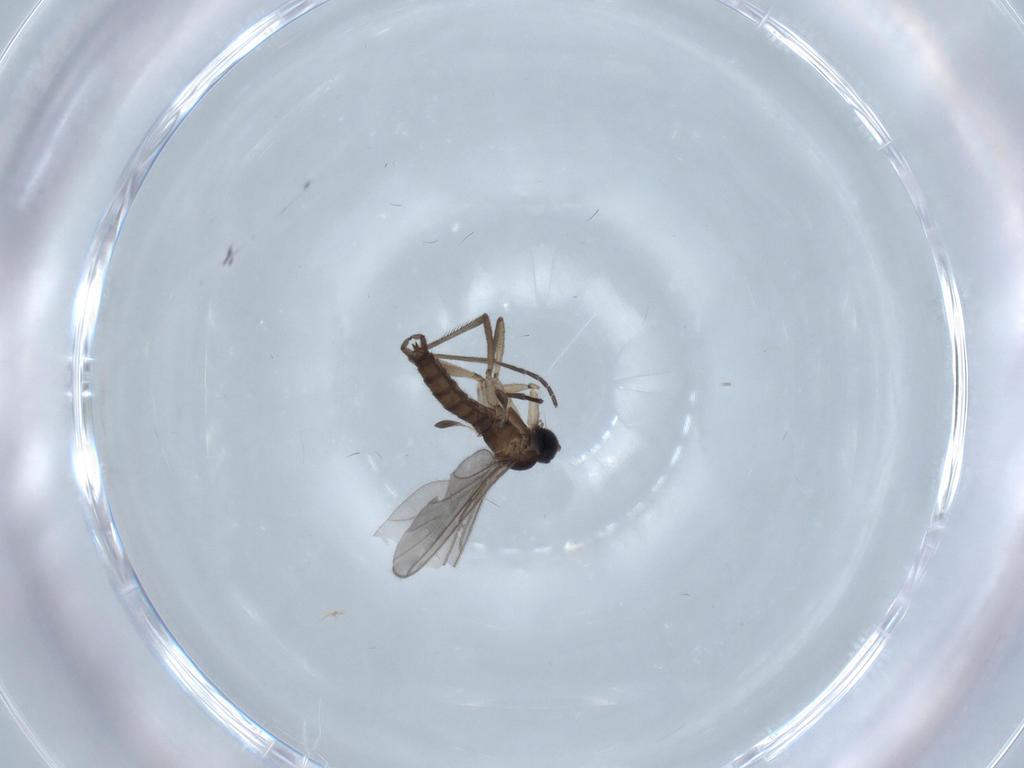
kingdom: Animalia
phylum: Arthropoda
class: Insecta
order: Diptera
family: Sciaridae
